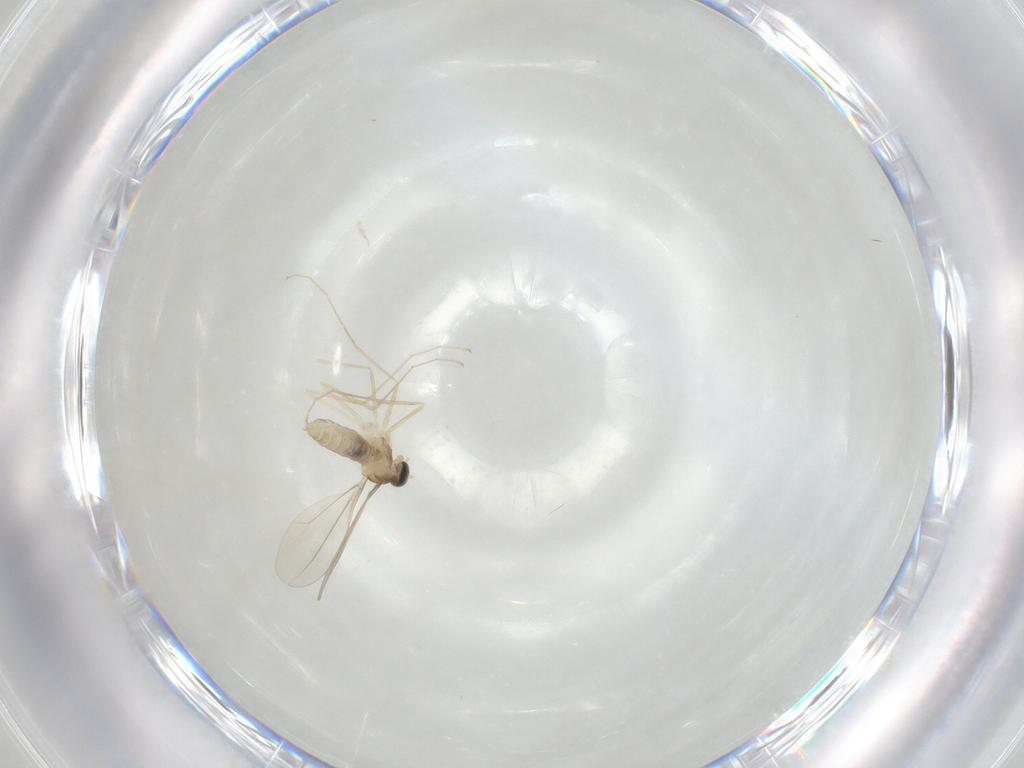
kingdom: Animalia
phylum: Arthropoda
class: Insecta
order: Diptera
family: Cecidomyiidae
